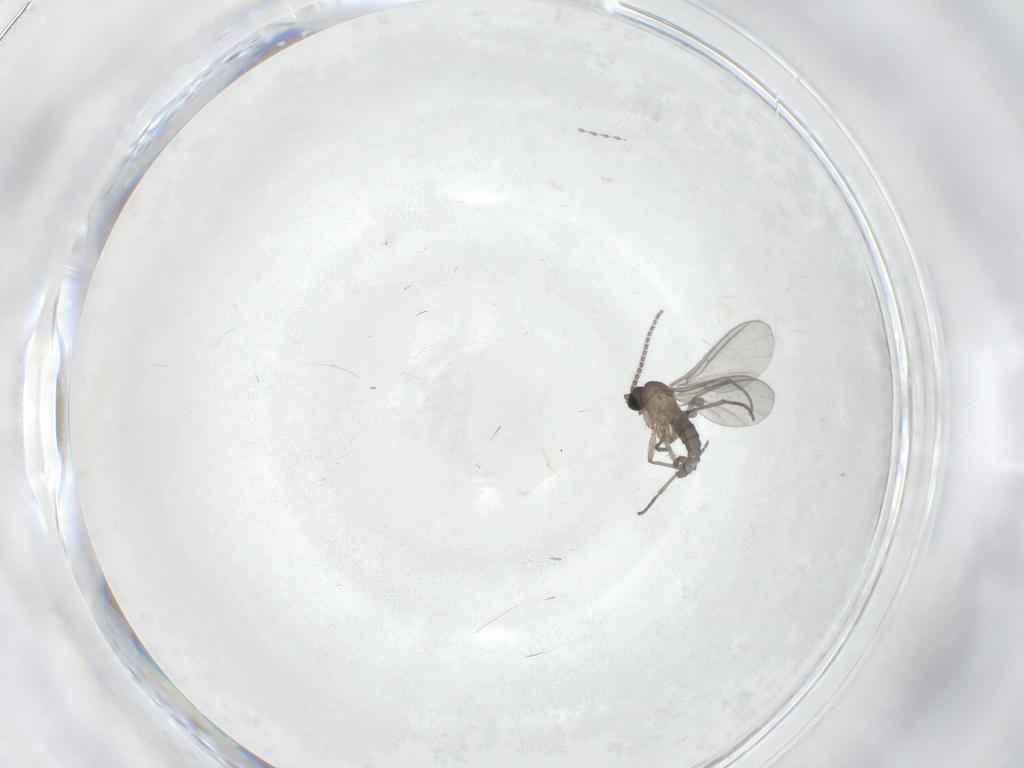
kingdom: Animalia
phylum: Arthropoda
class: Insecta
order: Diptera
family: Sciaridae
